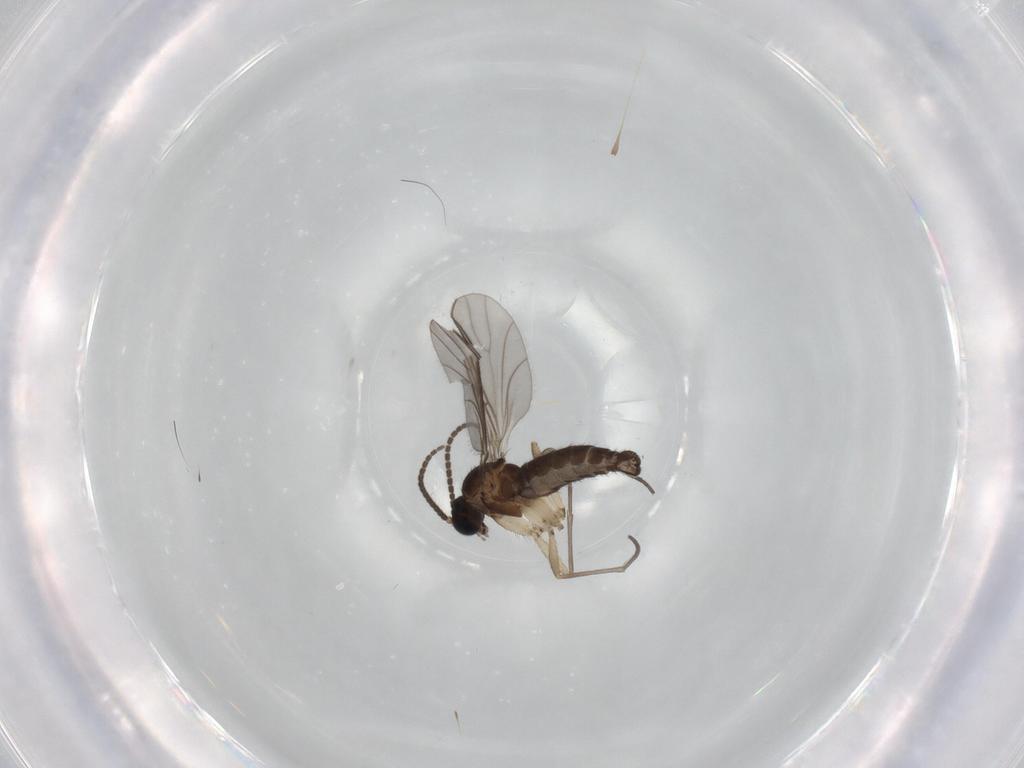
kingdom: Animalia
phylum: Arthropoda
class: Insecta
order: Diptera
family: Sciaridae
